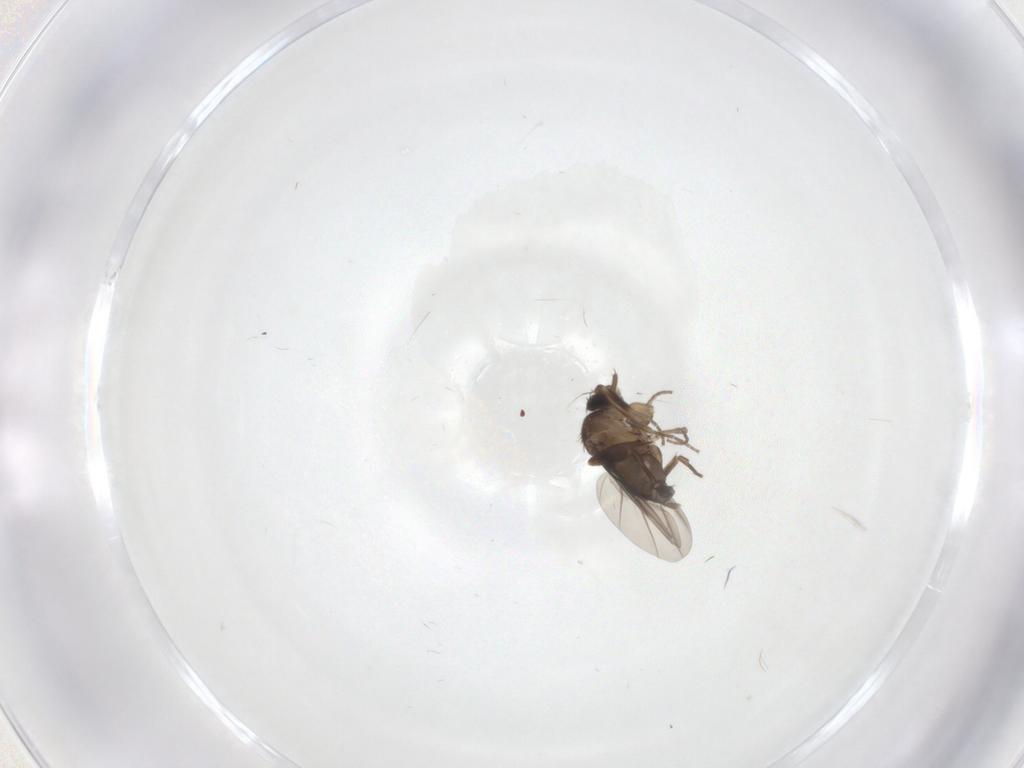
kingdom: Animalia
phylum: Arthropoda
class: Insecta
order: Diptera
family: Phoridae
